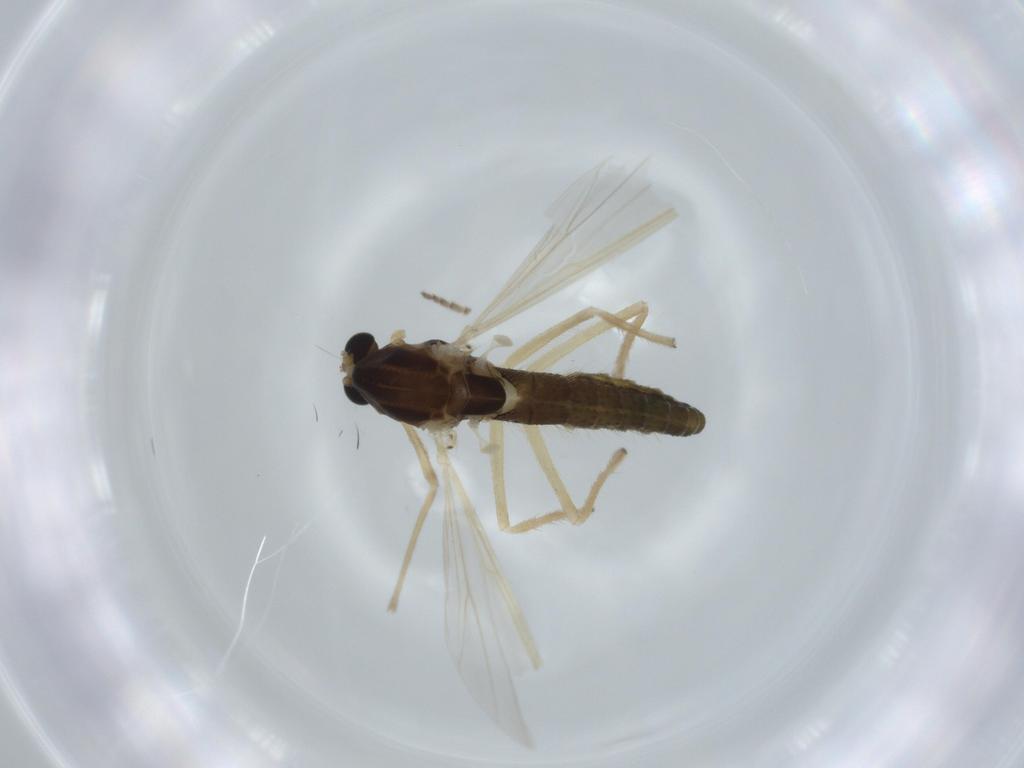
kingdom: Animalia
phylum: Arthropoda
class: Insecta
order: Diptera
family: Chironomidae
